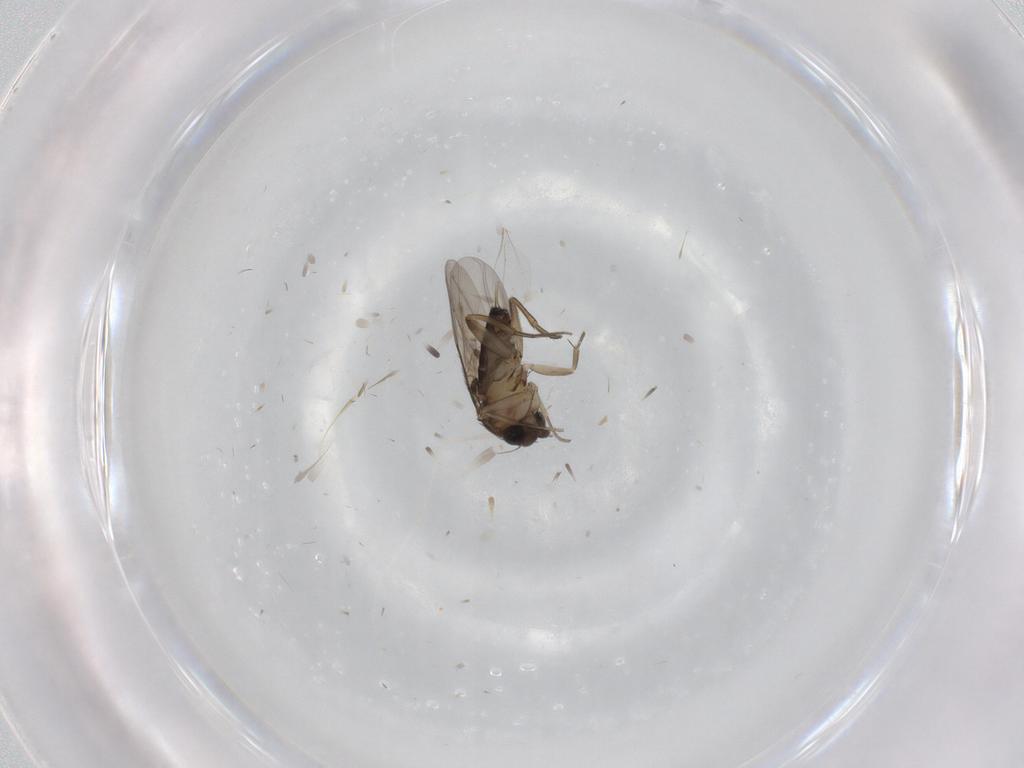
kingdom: Animalia
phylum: Arthropoda
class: Insecta
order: Diptera
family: Cecidomyiidae
